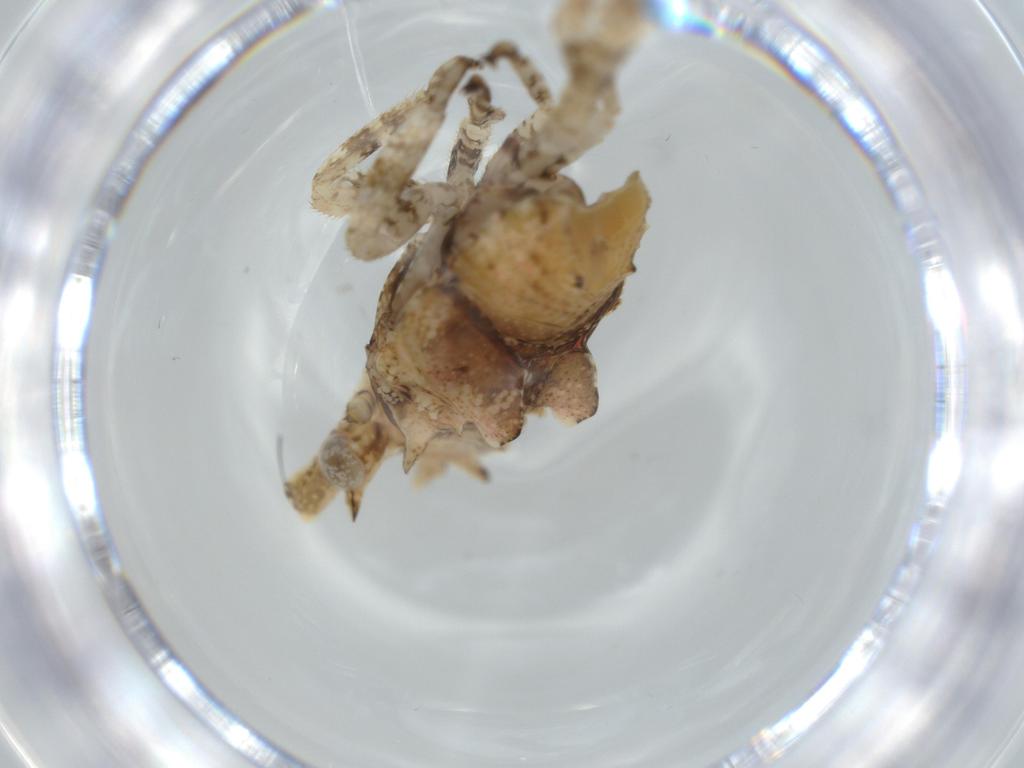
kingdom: Animalia
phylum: Arthropoda
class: Insecta
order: Hemiptera
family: Fulgoridae
